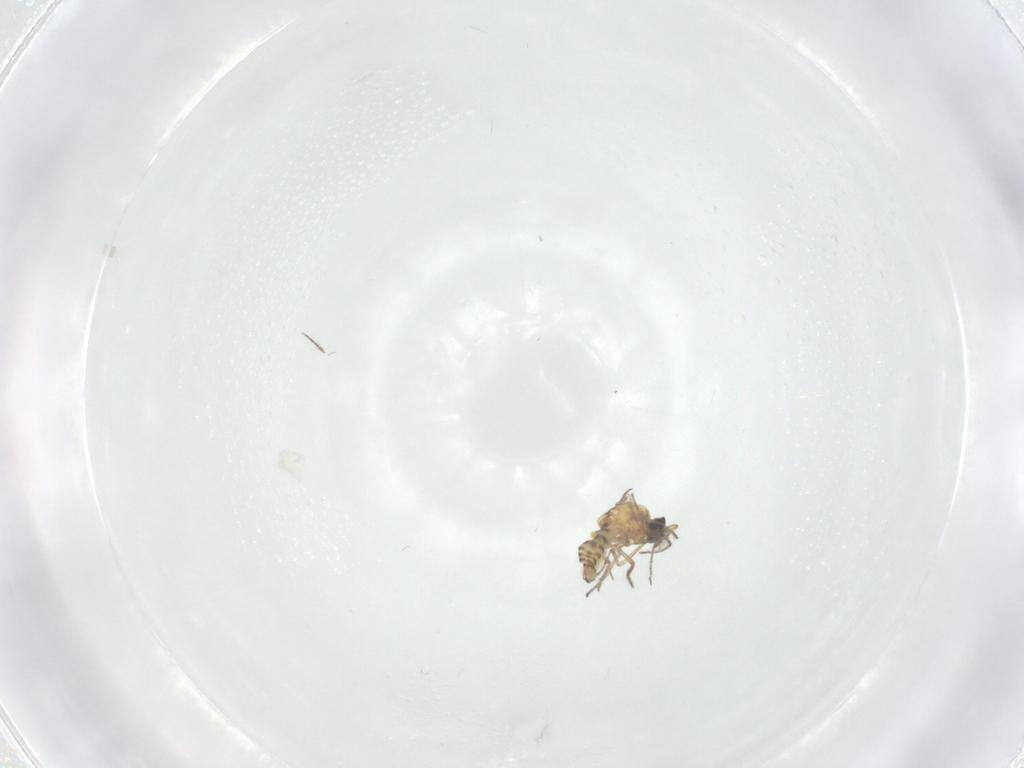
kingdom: Animalia
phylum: Arthropoda
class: Insecta
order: Diptera
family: Ceratopogonidae
